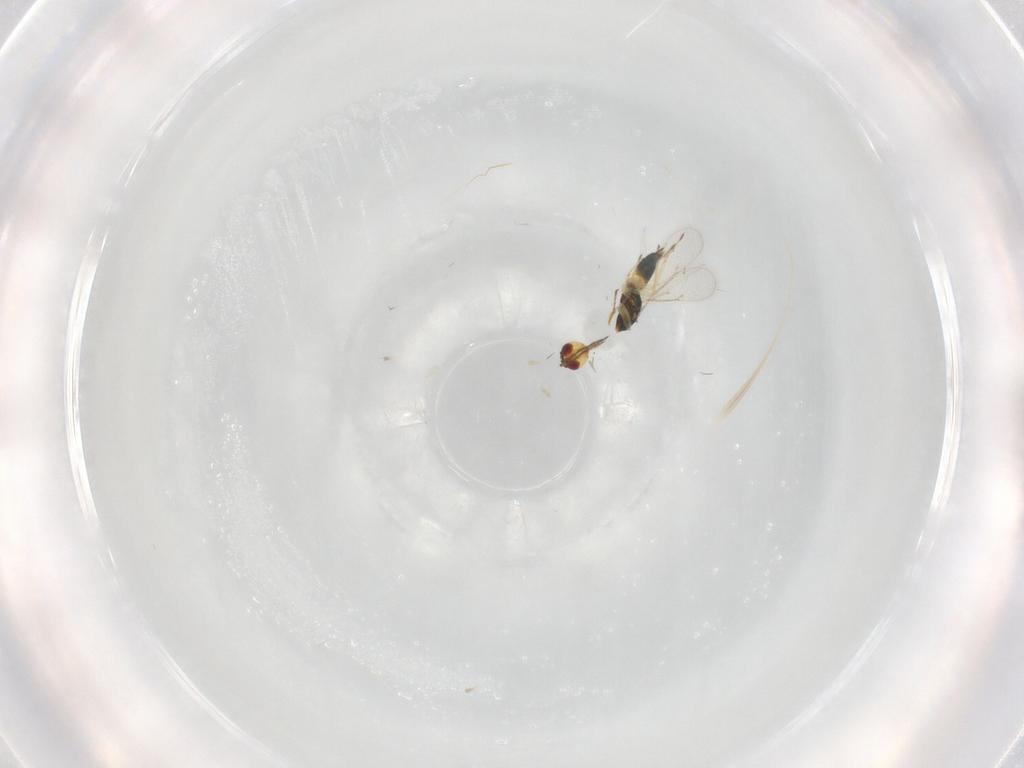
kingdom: Animalia
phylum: Arthropoda
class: Insecta
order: Hymenoptera
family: Eulophidae
